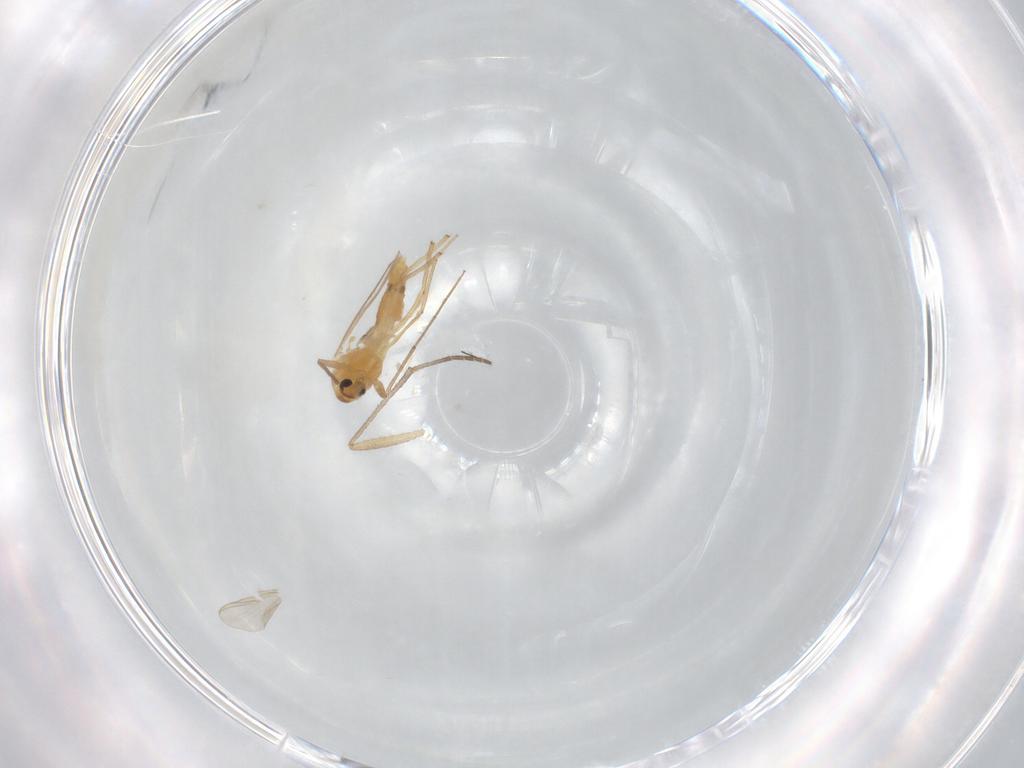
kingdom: Animalia
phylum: Arthropoda
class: Insecta
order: Diptera
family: Chironomidae
